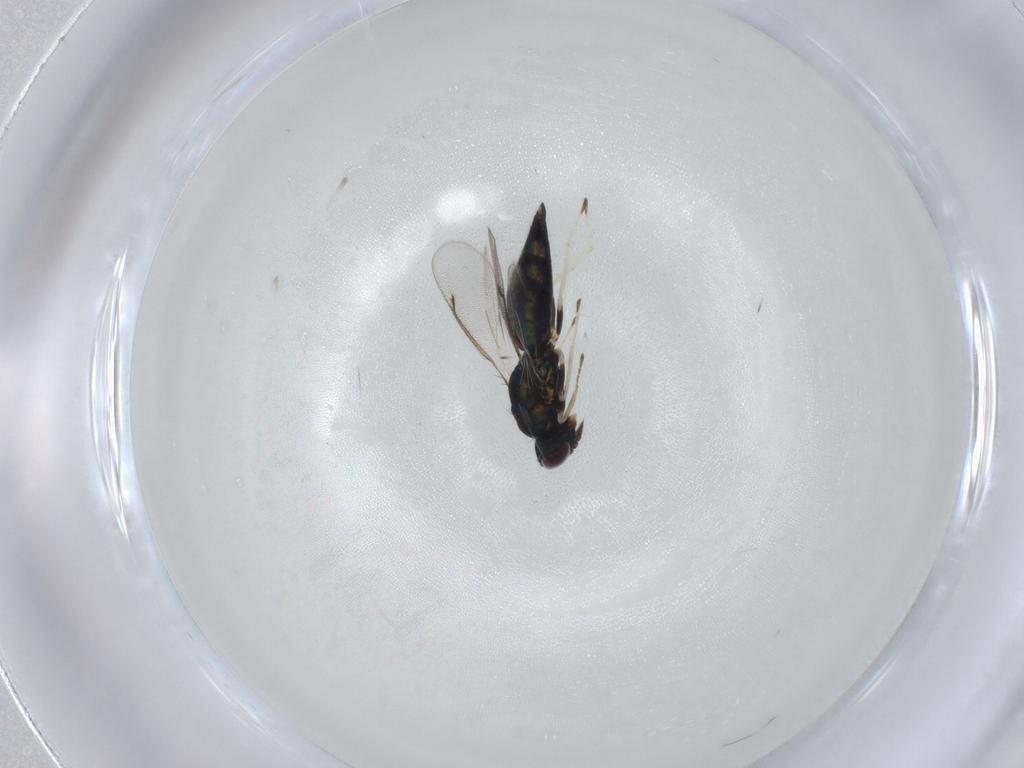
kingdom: Animalia
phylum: Arthropoda
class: Insecta
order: Hymenoptera
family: Eulophidae
